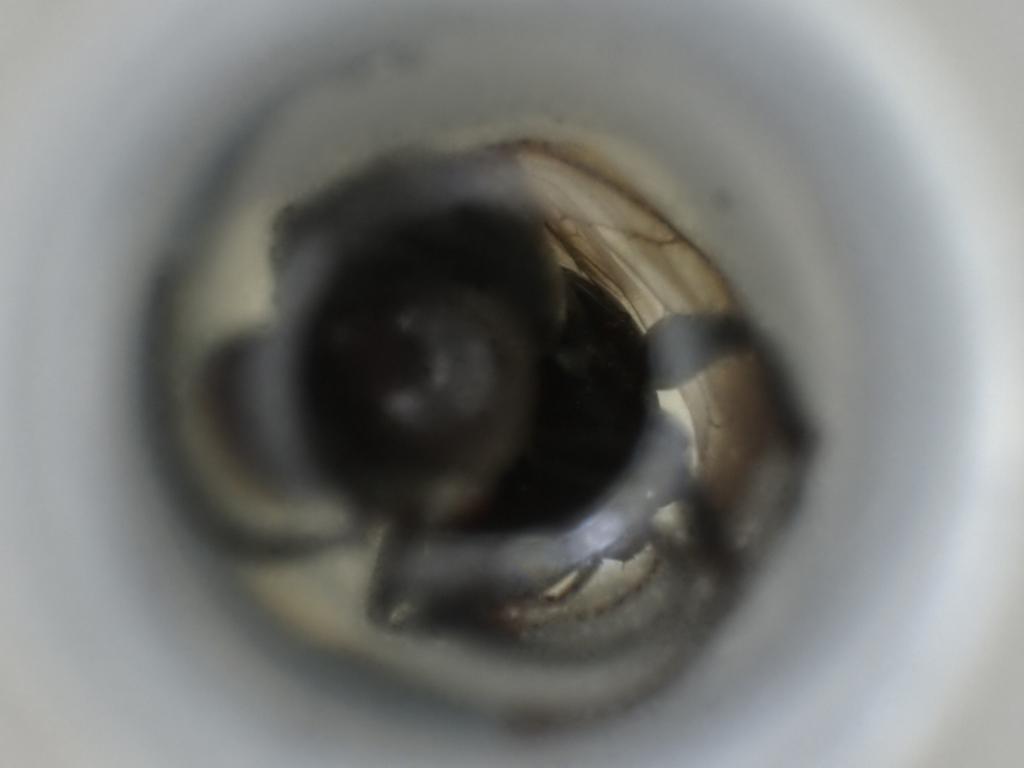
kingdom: Animalia
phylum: Arthropoda
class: Insecta
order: Hymenoptera
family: Crabronidae
